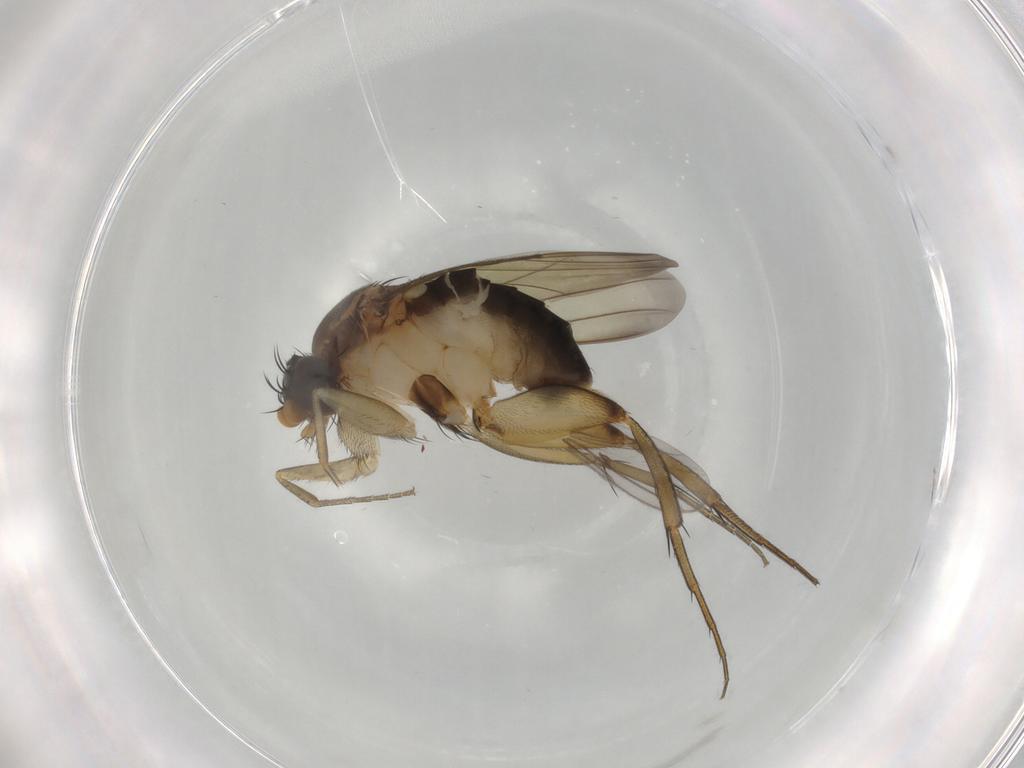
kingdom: Animalia
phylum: Arthropoda
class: Insecta
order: Diptera
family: Phoridae
